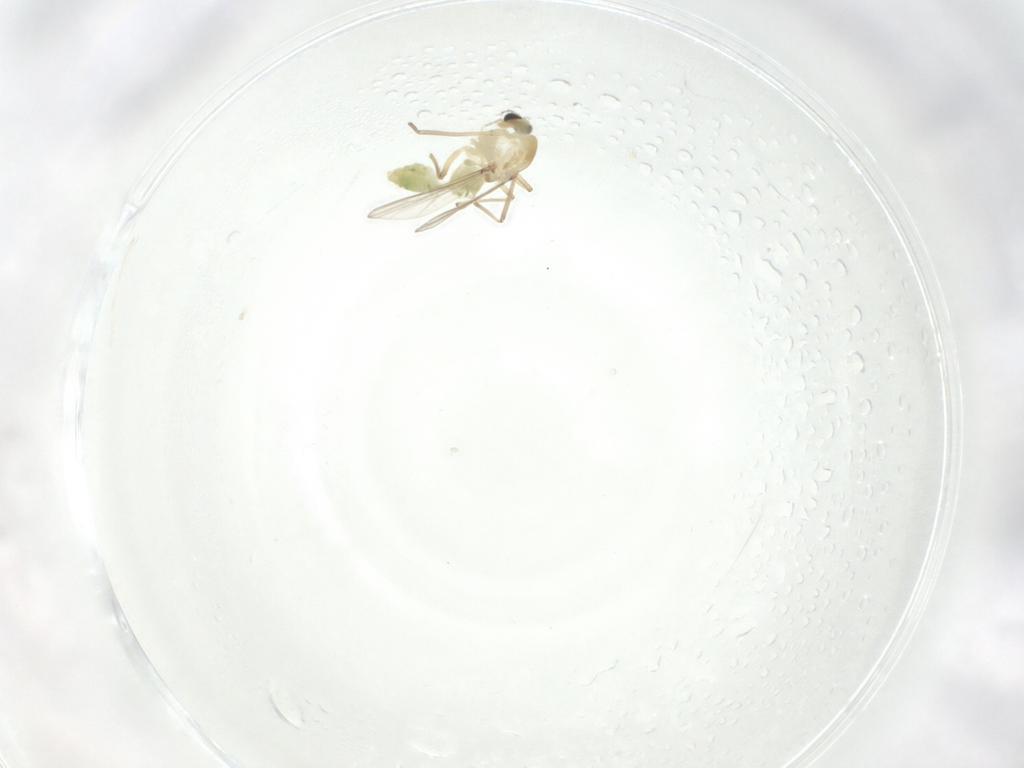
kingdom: Animalia
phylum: Arthropoda
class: Insecta
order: Diptera
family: Chironomidae
